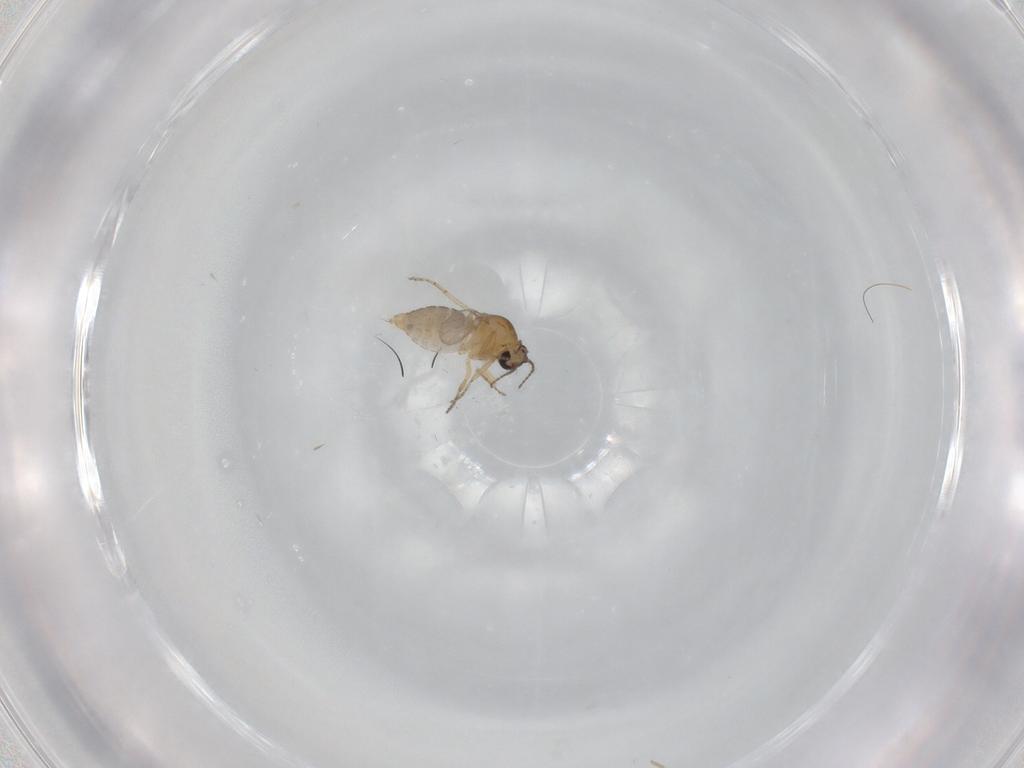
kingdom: Animalia
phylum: Arthropoda
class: Insecta
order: Diptera
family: Ceratopogonidae
